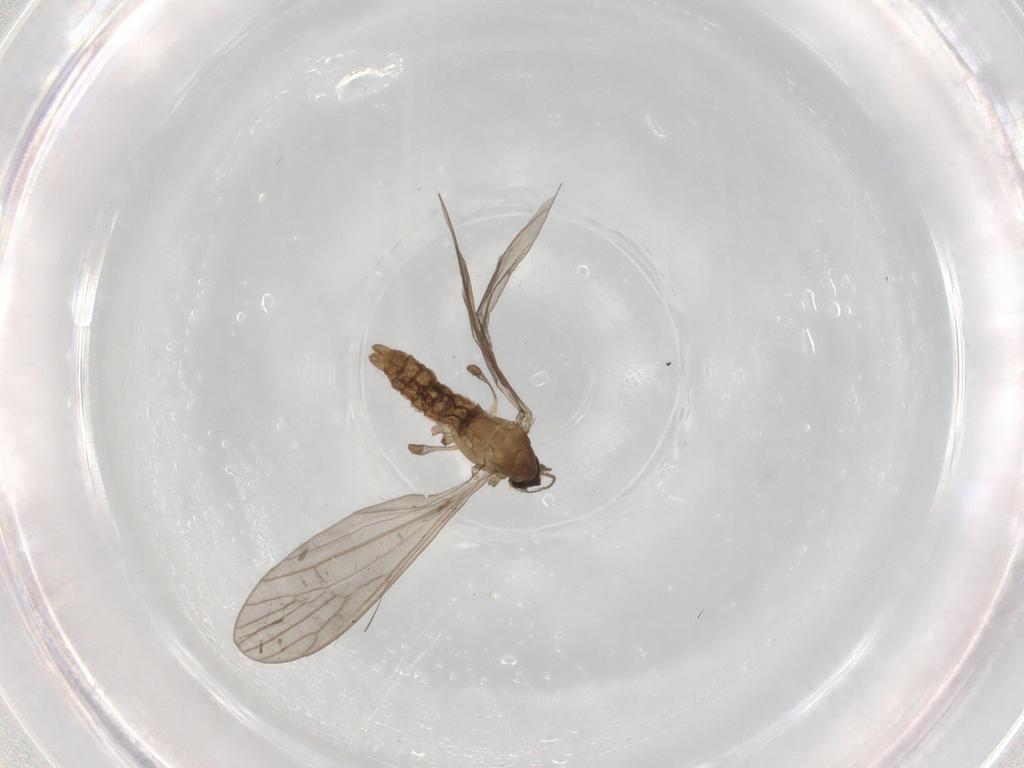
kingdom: Animalia
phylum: Arthropoda
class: Insecta
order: Diptera
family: Limoniidae
